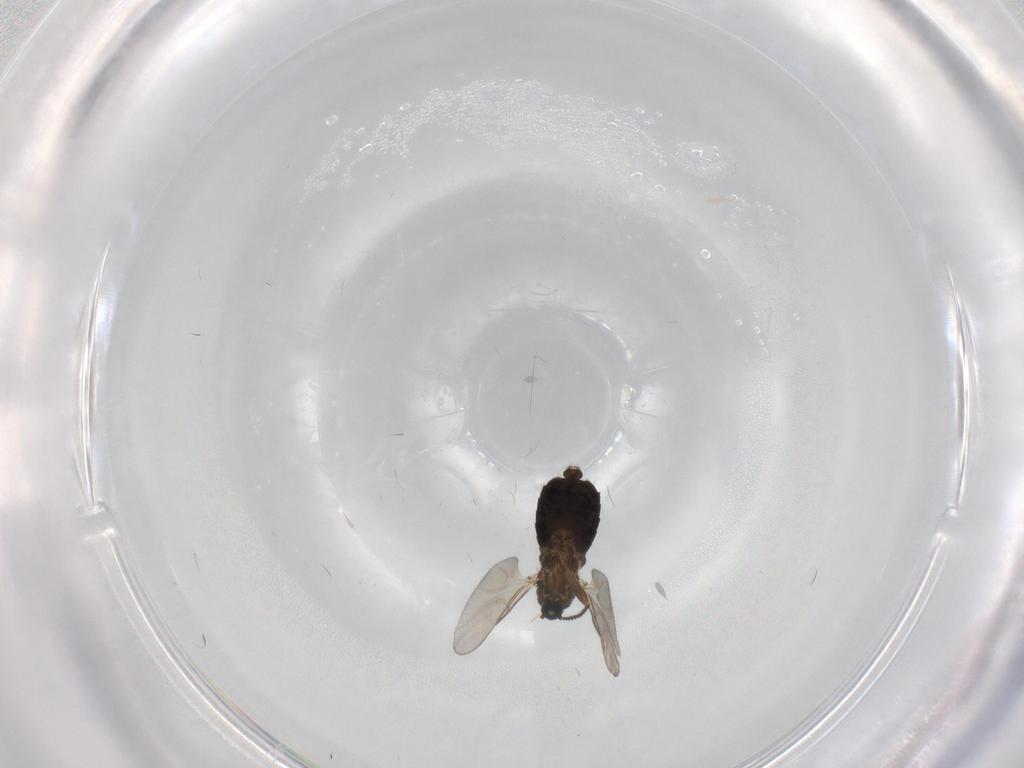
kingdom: Animalia
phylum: Arthropoda
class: Insecta
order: Diptera
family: Scatopsidae
